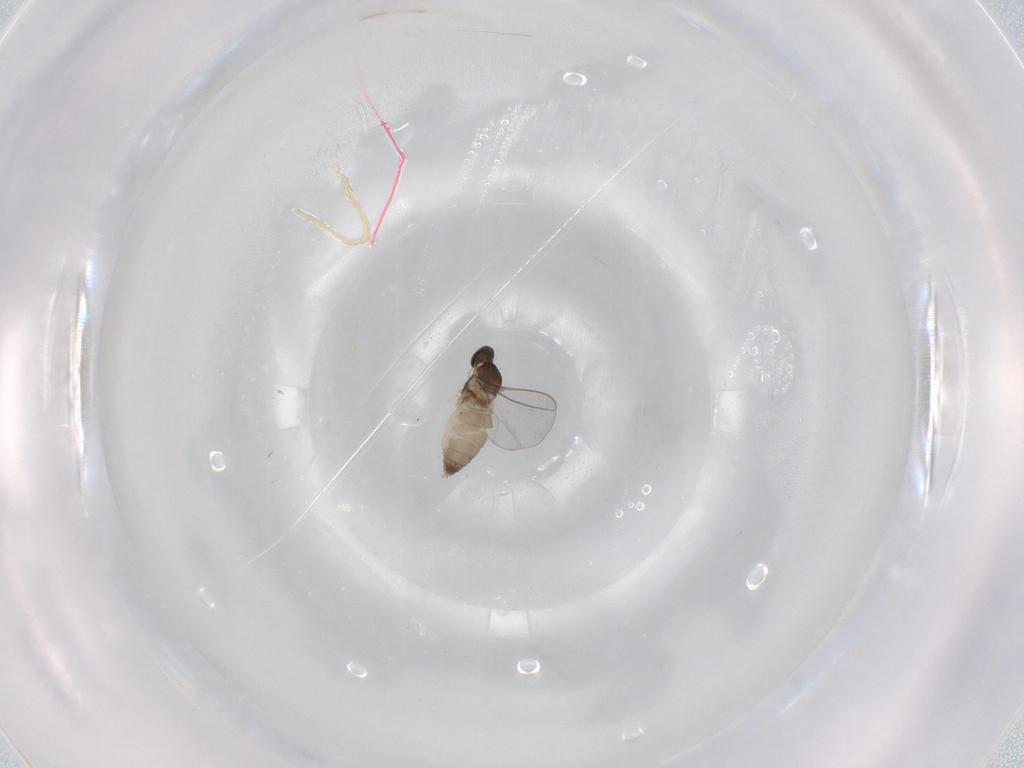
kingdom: Animalia
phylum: Arthropoda
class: Insecta
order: Diptera
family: Cecidomyiidae
